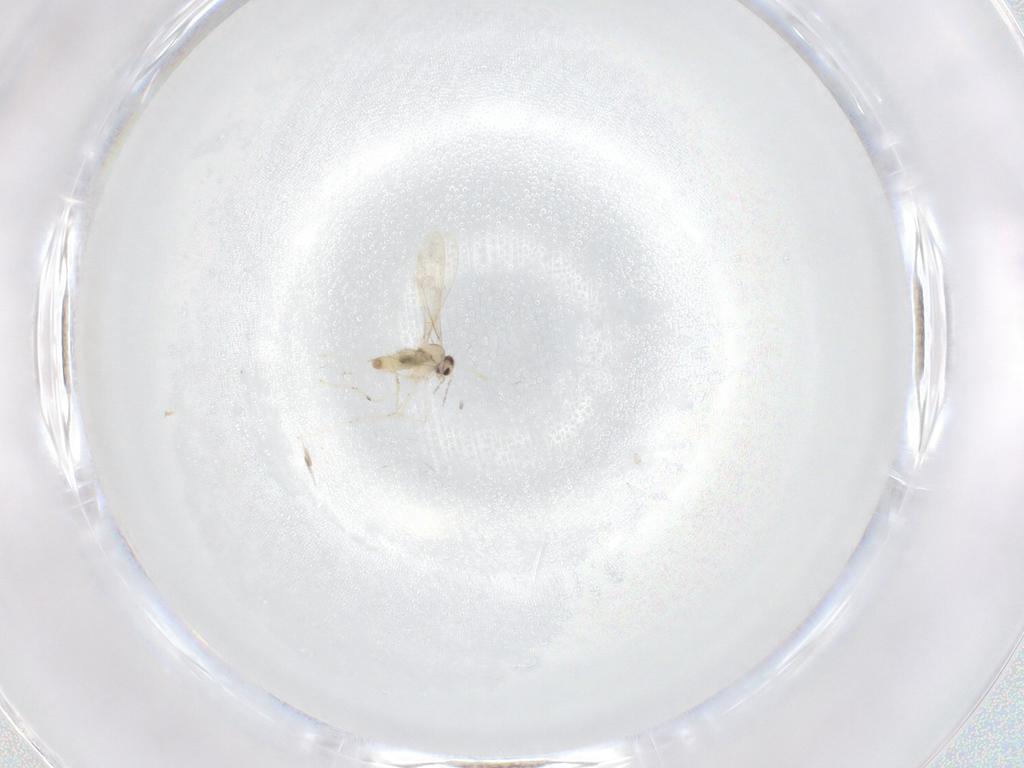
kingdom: Animalia
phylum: Arthropoda
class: Insecta
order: Diptera
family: Cecidomyiidae
